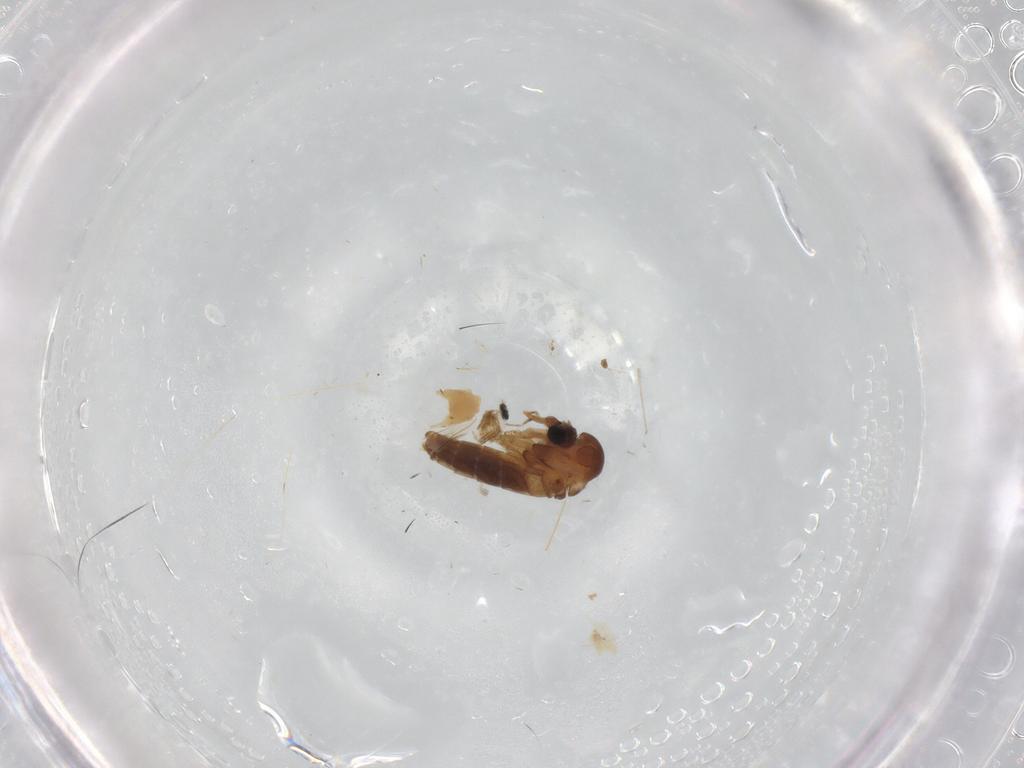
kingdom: Animalia
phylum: Arthropoda
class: Insecta
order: Diptera
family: Psychodidae
